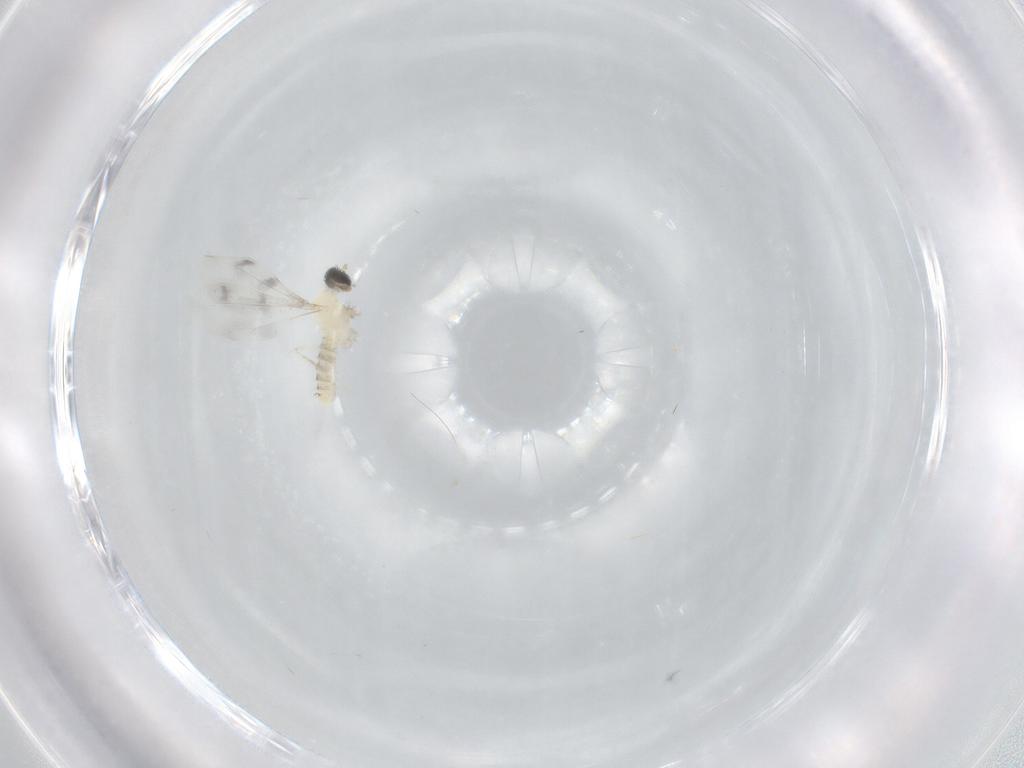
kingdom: Animalia
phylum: Arthropoda
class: Insecta
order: Diptera
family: Cecidomyiidae
